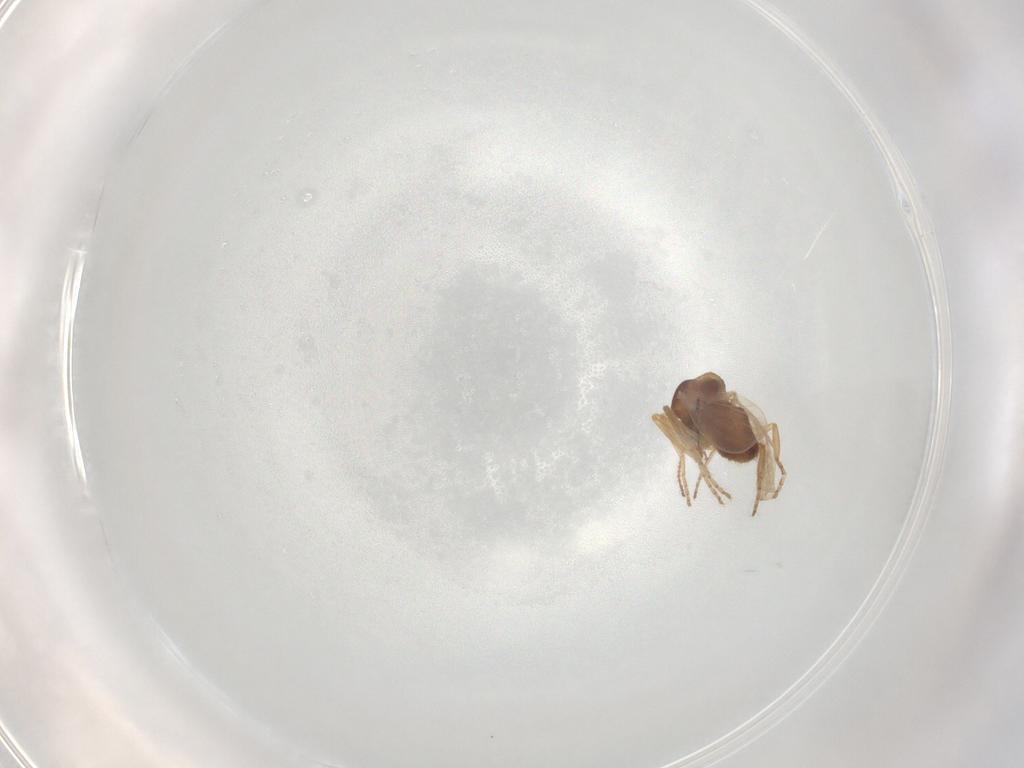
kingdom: Animalia
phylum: Arthropoda
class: Insecta
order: Diptera
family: Ceratopogonidae
